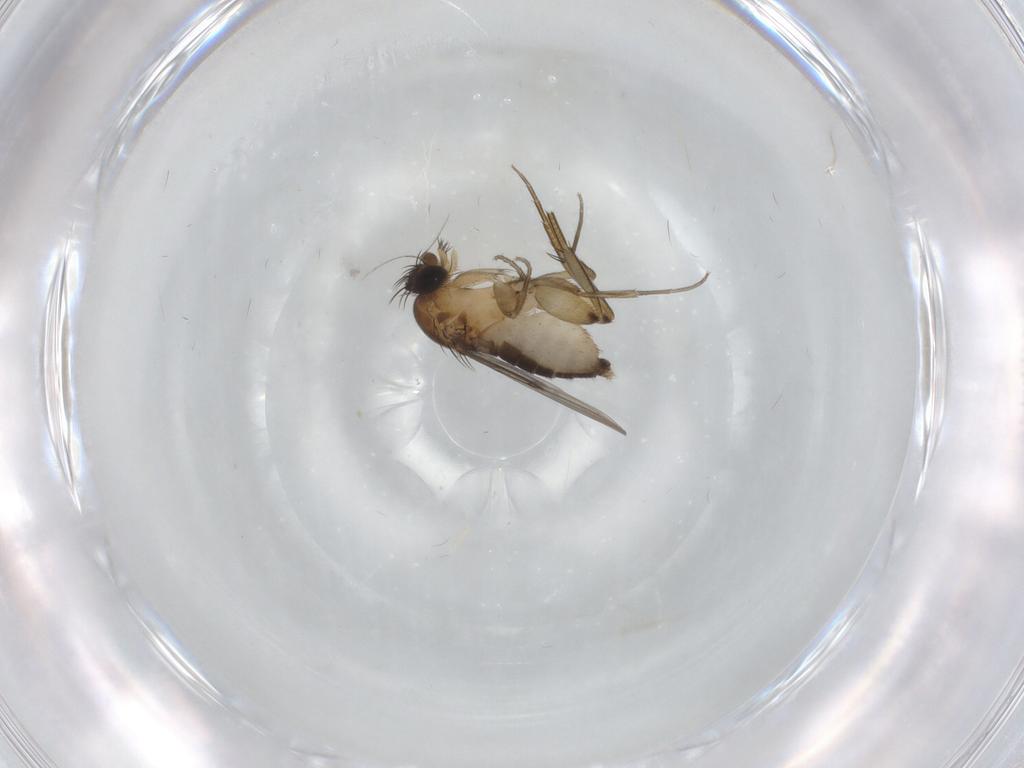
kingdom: Animalia
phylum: Arthropoda
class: Insecta
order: Diptera
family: Phoridae
